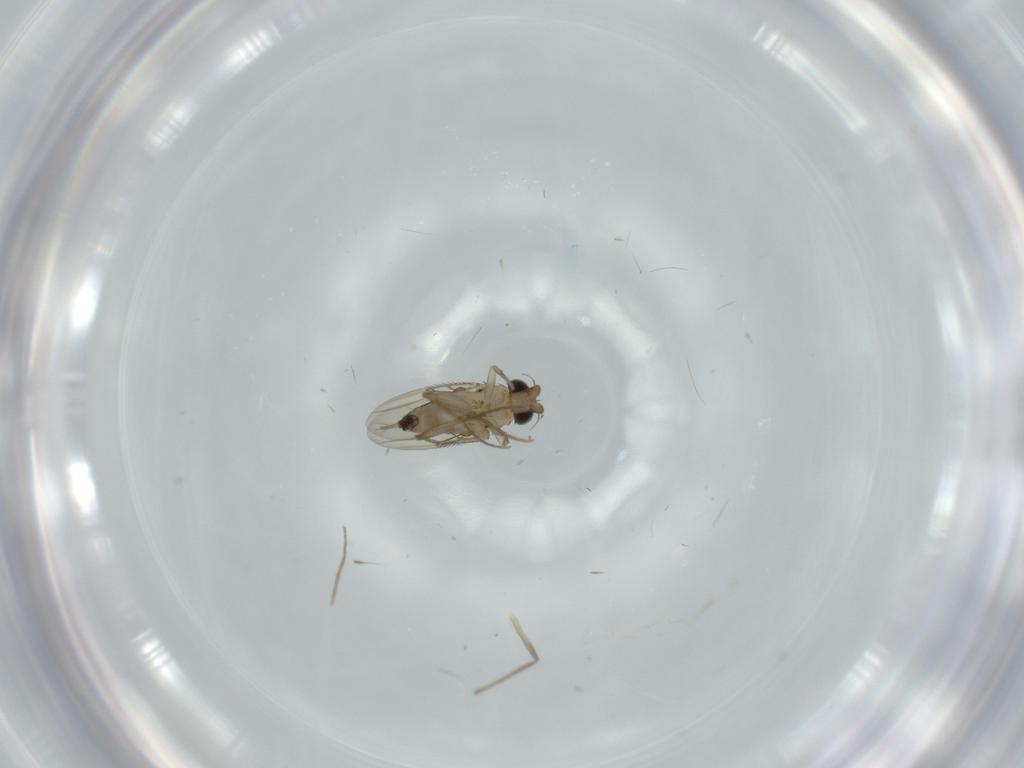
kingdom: Animalia
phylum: Arthropoda
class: Insecta
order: Diptera
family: Phoridae
